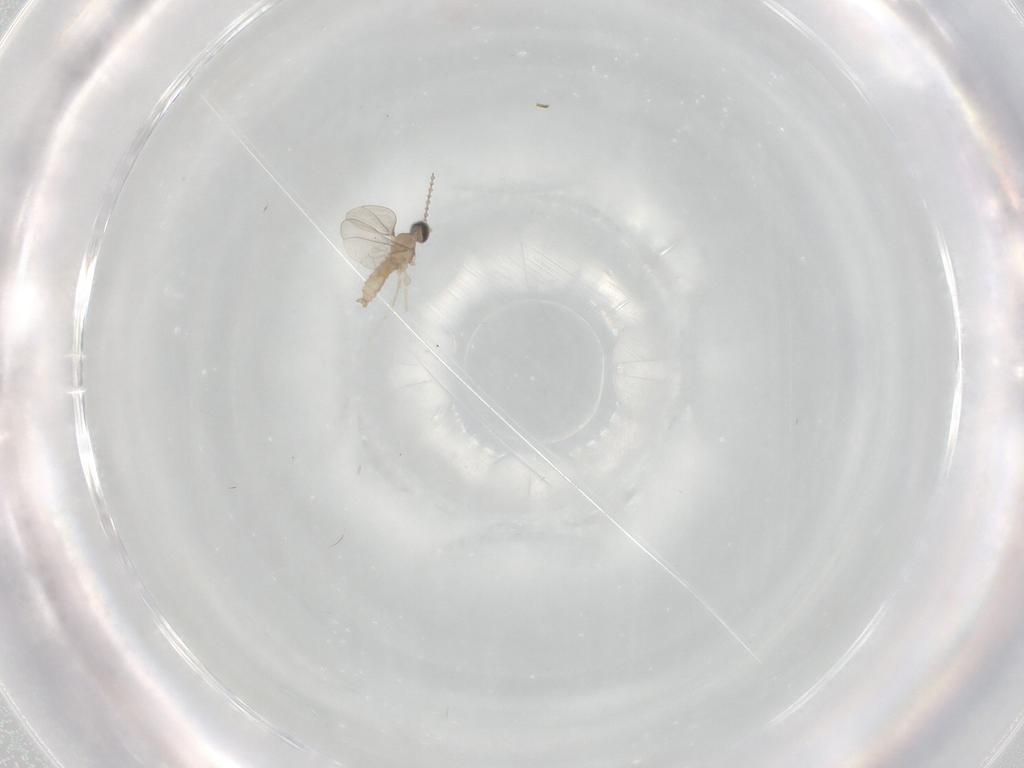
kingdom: Animalia
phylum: Arthropoda
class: Insecta
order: Diptera
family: Cecidomyiidae
